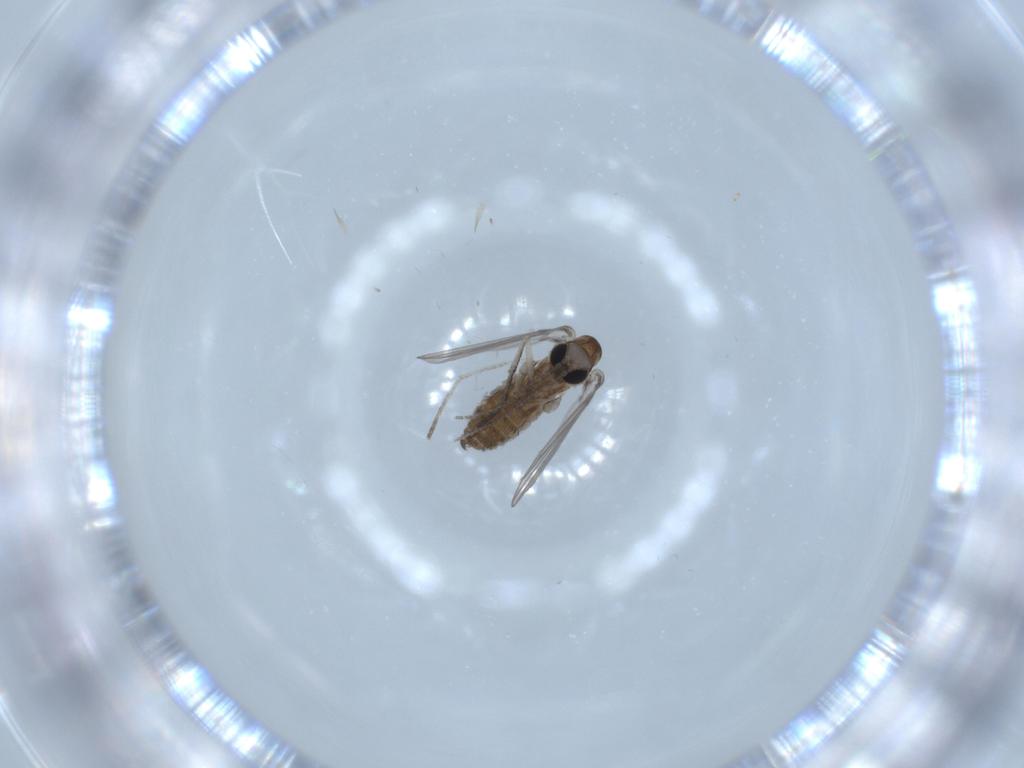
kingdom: Animalia
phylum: Arthropoda
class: Insecta
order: Diptera
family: Psychodidae
